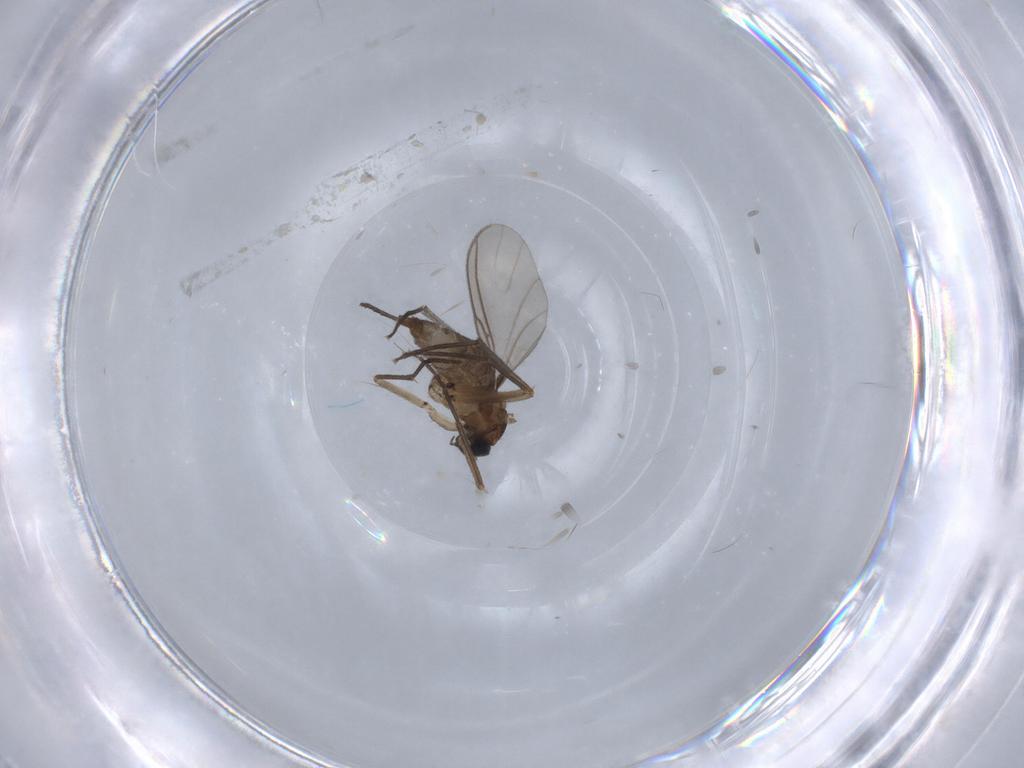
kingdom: Animalia
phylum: Arthropoda
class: Insecta
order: Diptera
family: Sciaridae
